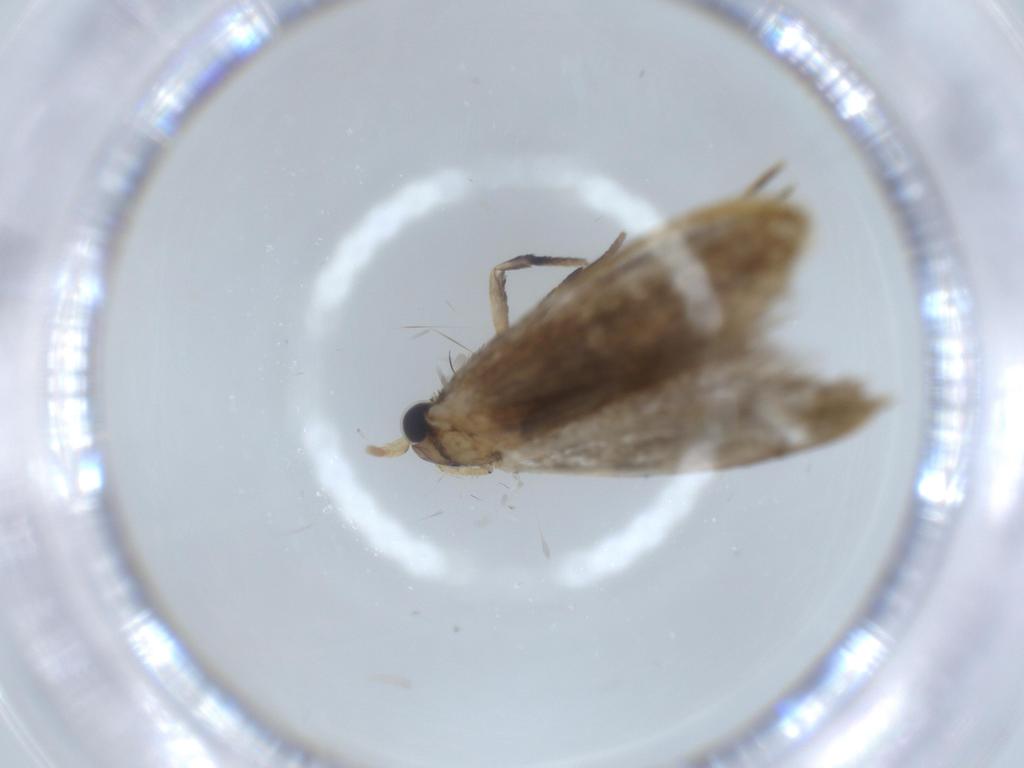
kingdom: Animalia
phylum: Arthropoda
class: Insecta
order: Lepidoptera
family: Tineidae
